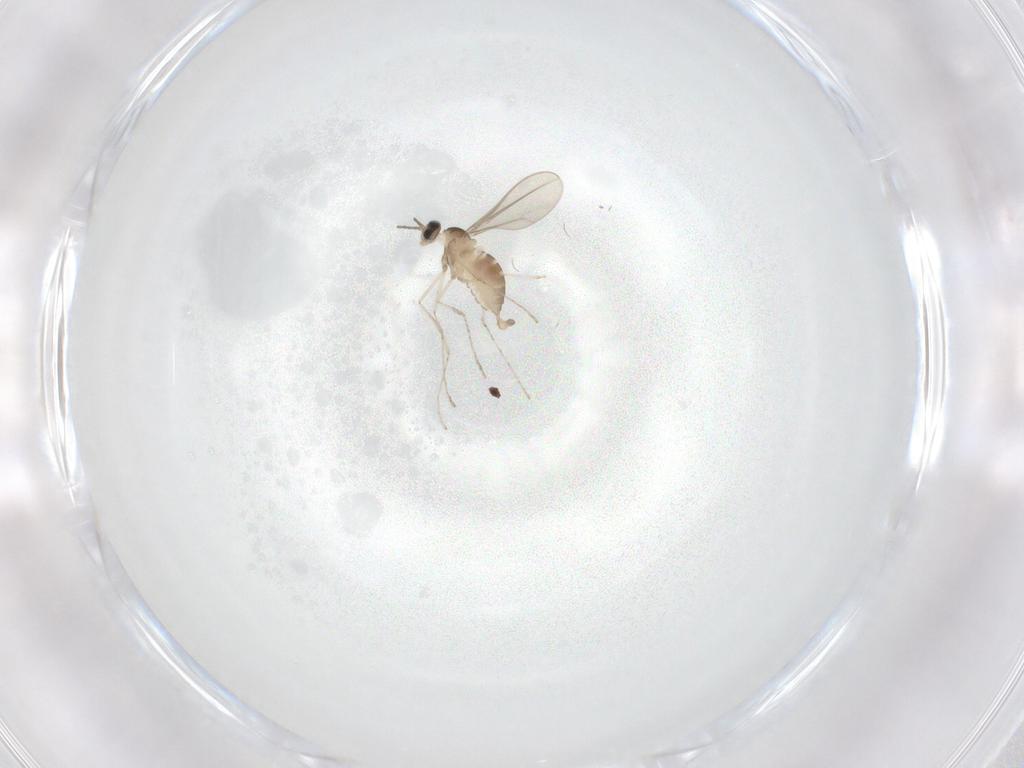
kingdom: Animalia
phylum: Arthropoda
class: Insecta
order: Diptera
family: Cecidomyiidae
